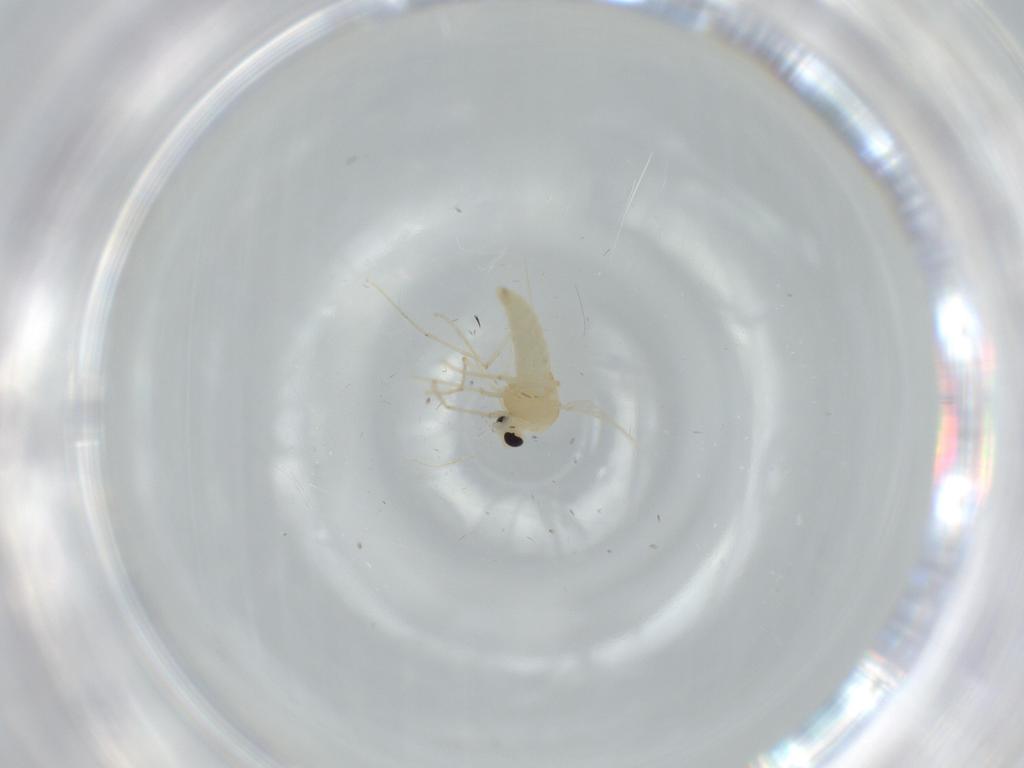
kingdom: Animalia
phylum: Arthropoda
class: Insecta
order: Diptera
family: Chironomidae
